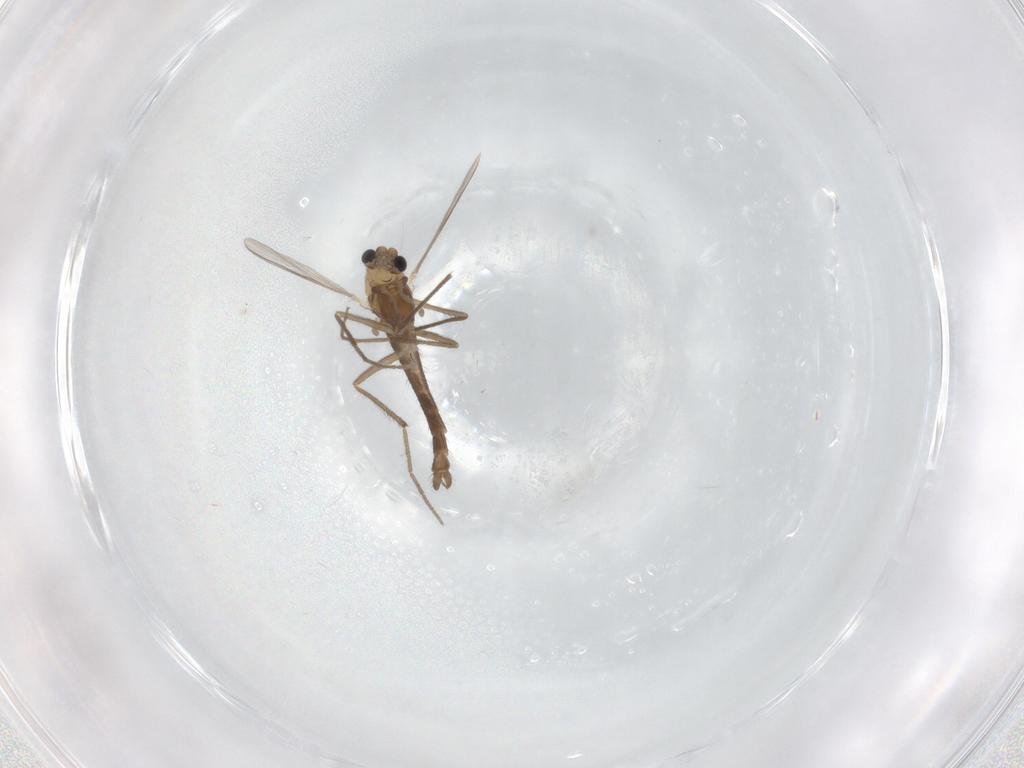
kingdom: Animalia
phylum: Arthropoda
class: Insecta
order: Diptera
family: Chironomidae
